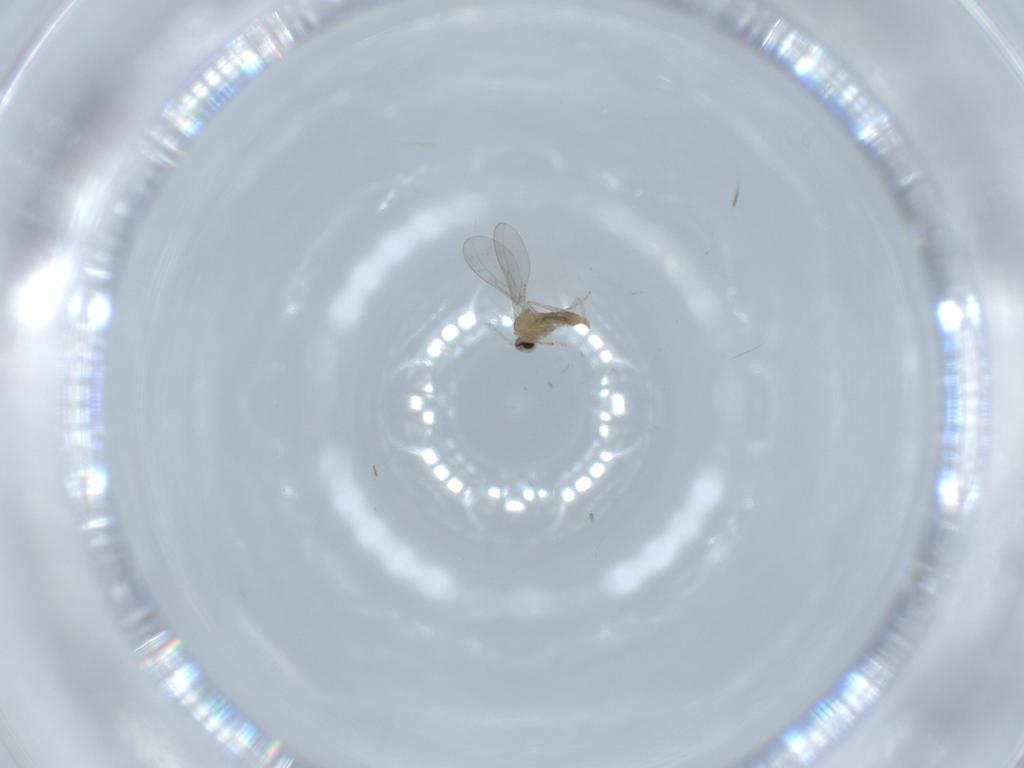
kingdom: Animalia
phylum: Arthropoda
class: Insecta
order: Diptera
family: Cecidomyiidae
